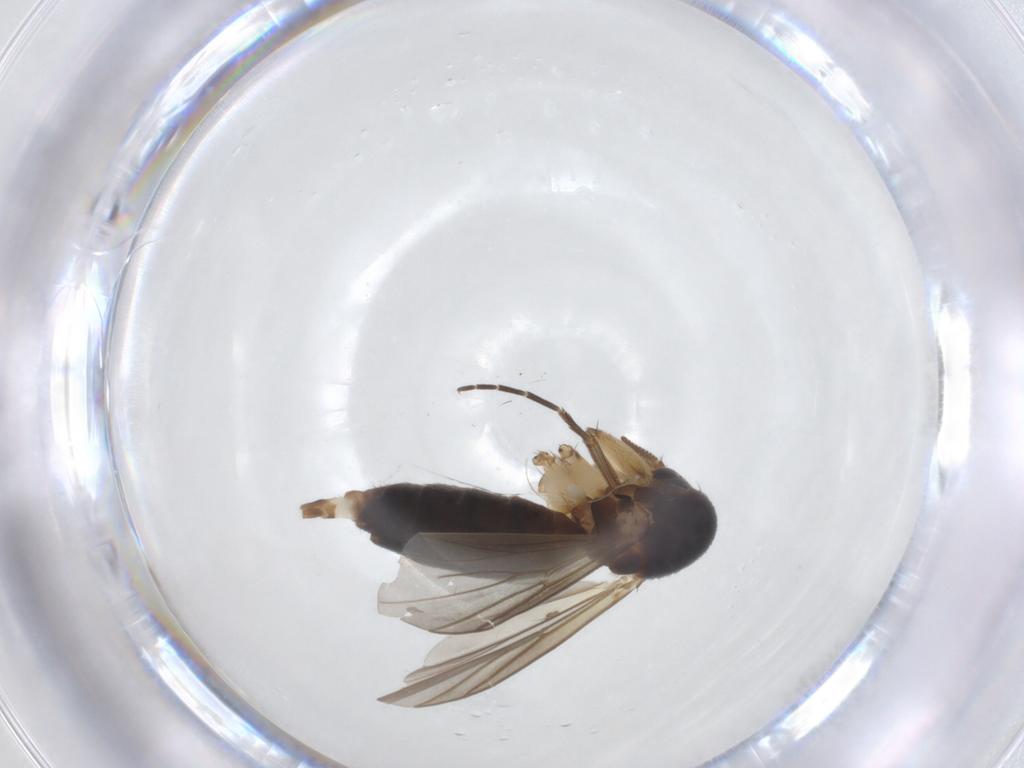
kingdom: Animalia
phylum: Arthropoda
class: Insecta
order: Diptera
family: Mycetophilidae
